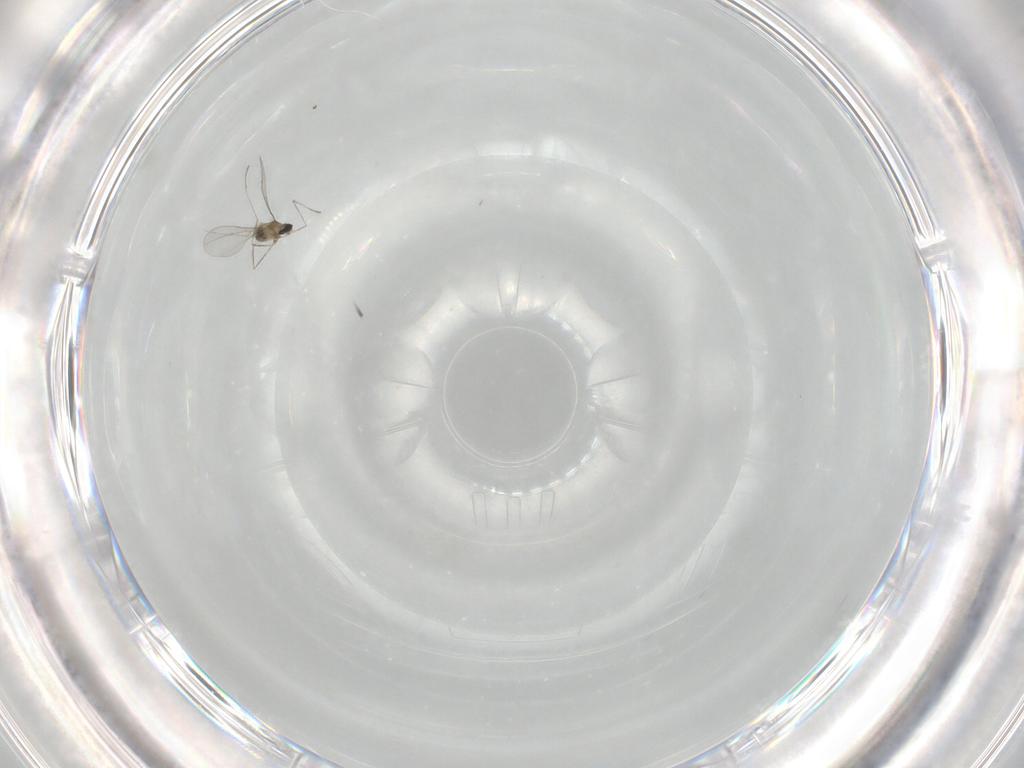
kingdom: Animalia
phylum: Arthropoda
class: Insecta
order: Diptera
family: Cecidomyiidae
